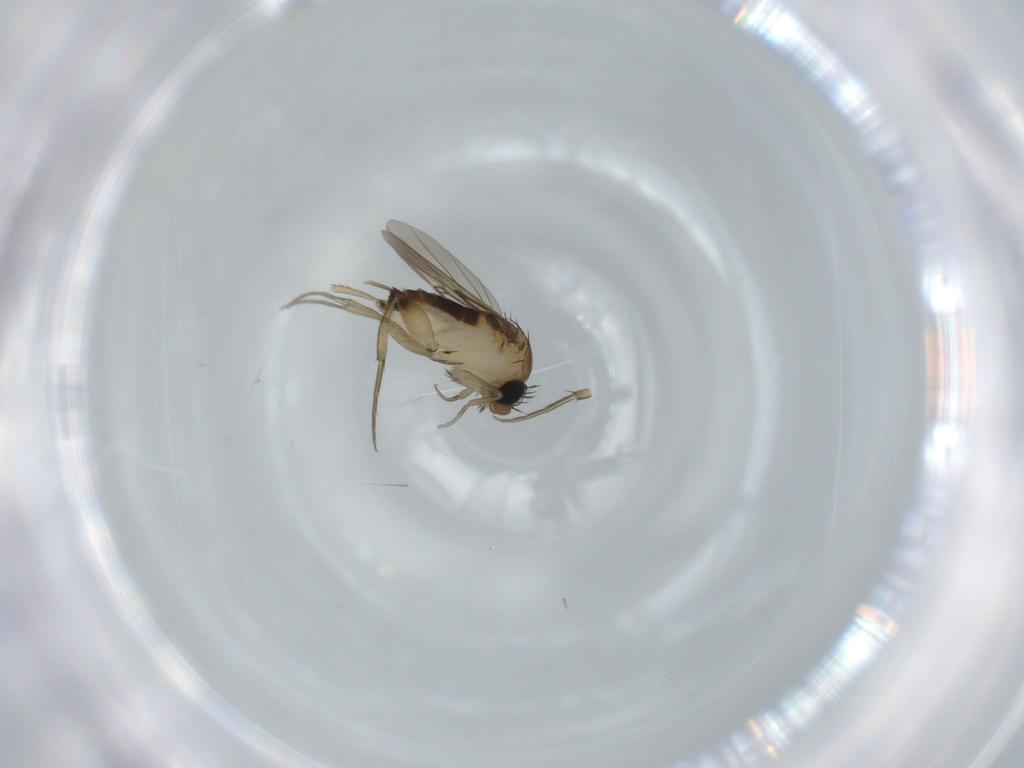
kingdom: Animalia
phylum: Arthropoda
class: Insecta
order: Diptera
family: Phoridae
